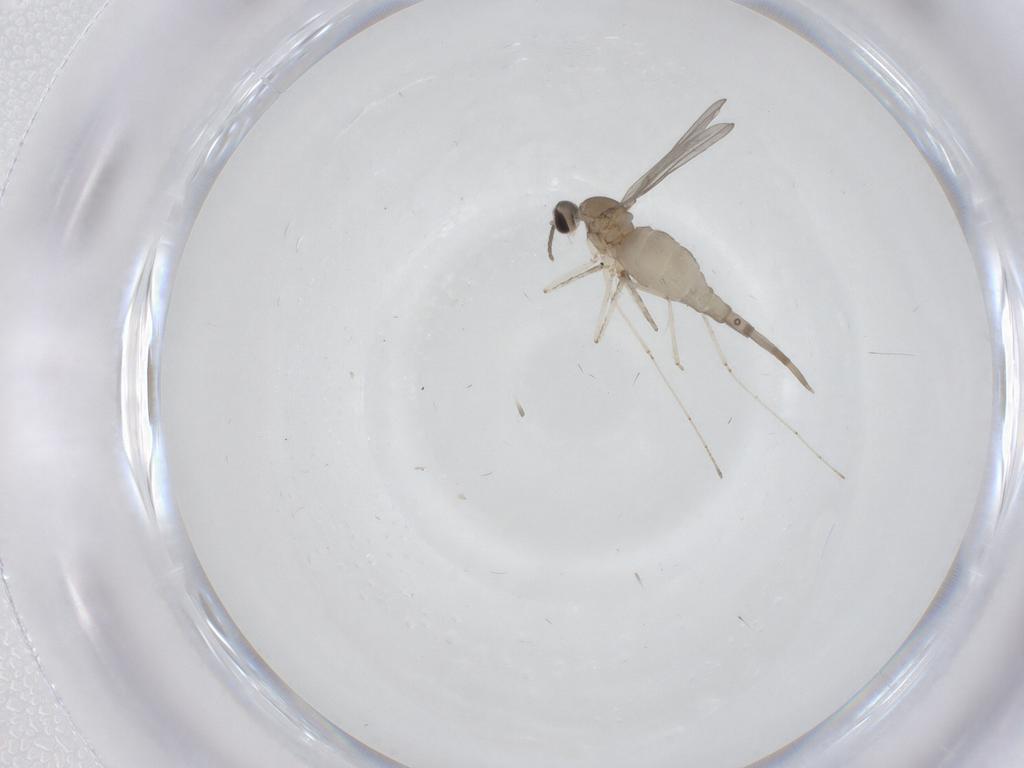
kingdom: Animalia
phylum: Arthropoda
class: Insecta
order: Diptera
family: Cecidomyiidae
